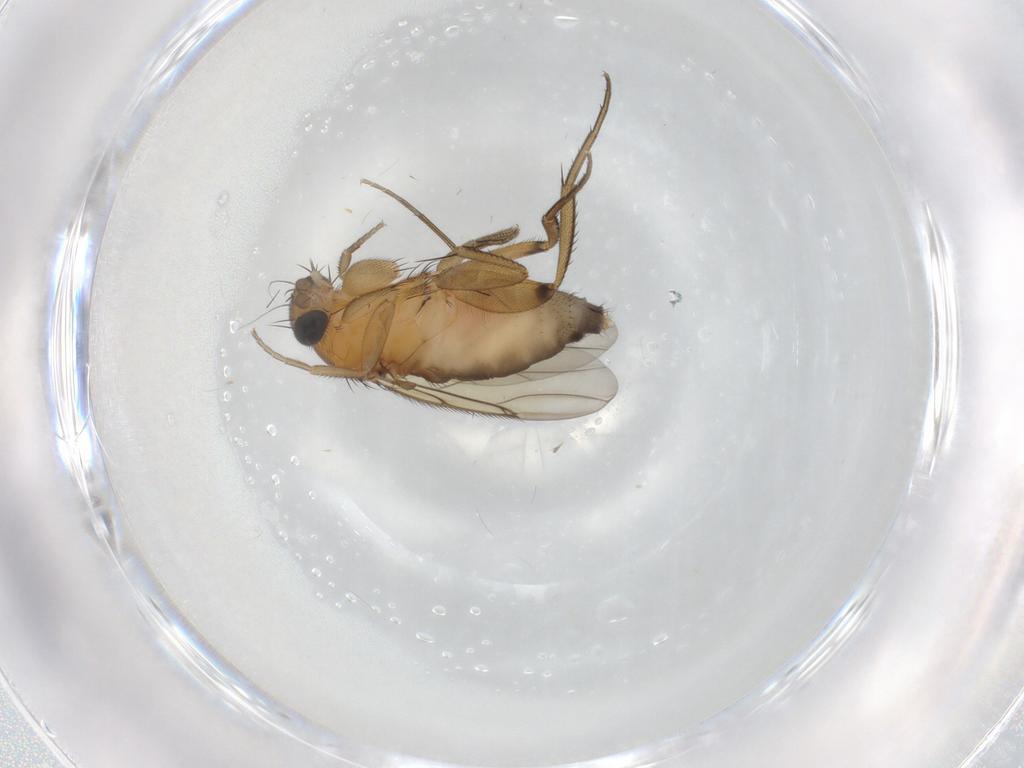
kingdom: Animalia
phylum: Arthropoda
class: Insecta
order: Diptera
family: Phoridae
